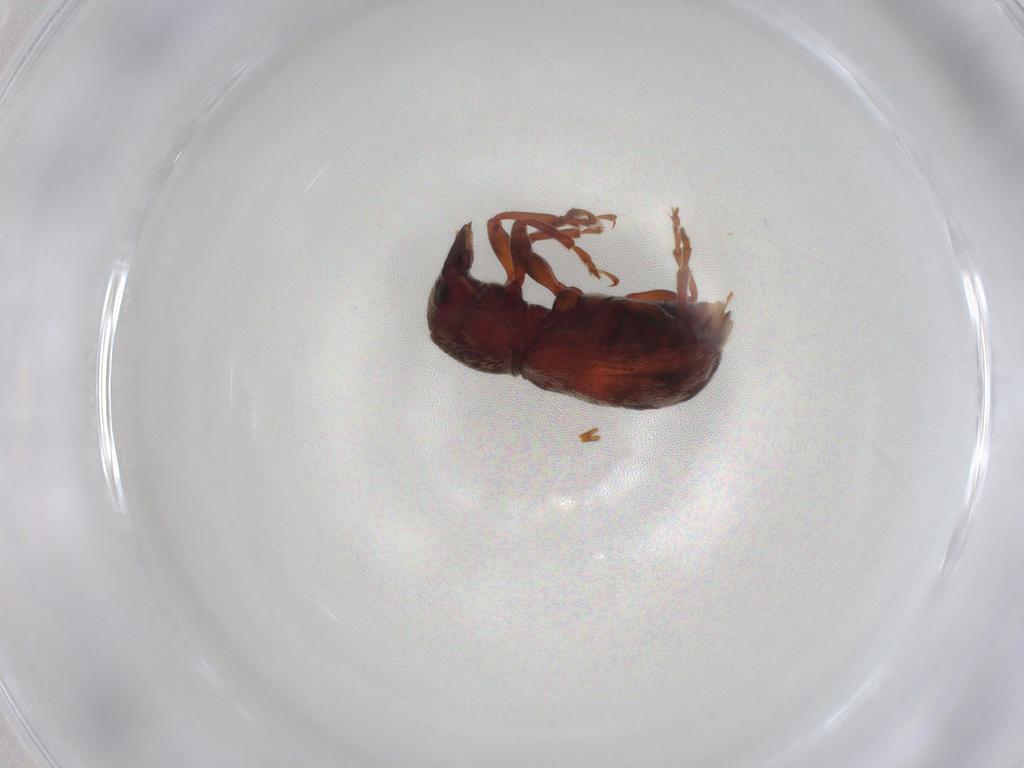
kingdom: Animalia
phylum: Arthropoda
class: Insecta
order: Coleoptera
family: Anthribidae
